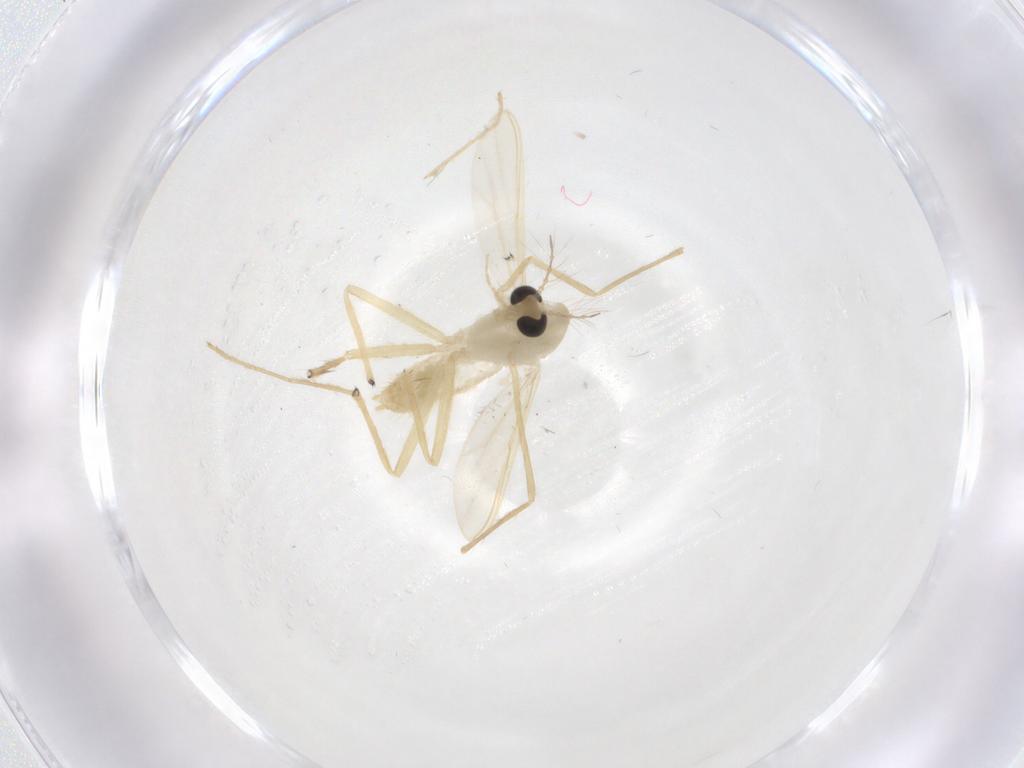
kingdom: Animalia
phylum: Arthropoda
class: Insecta
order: Diptera
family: Chironomidae
